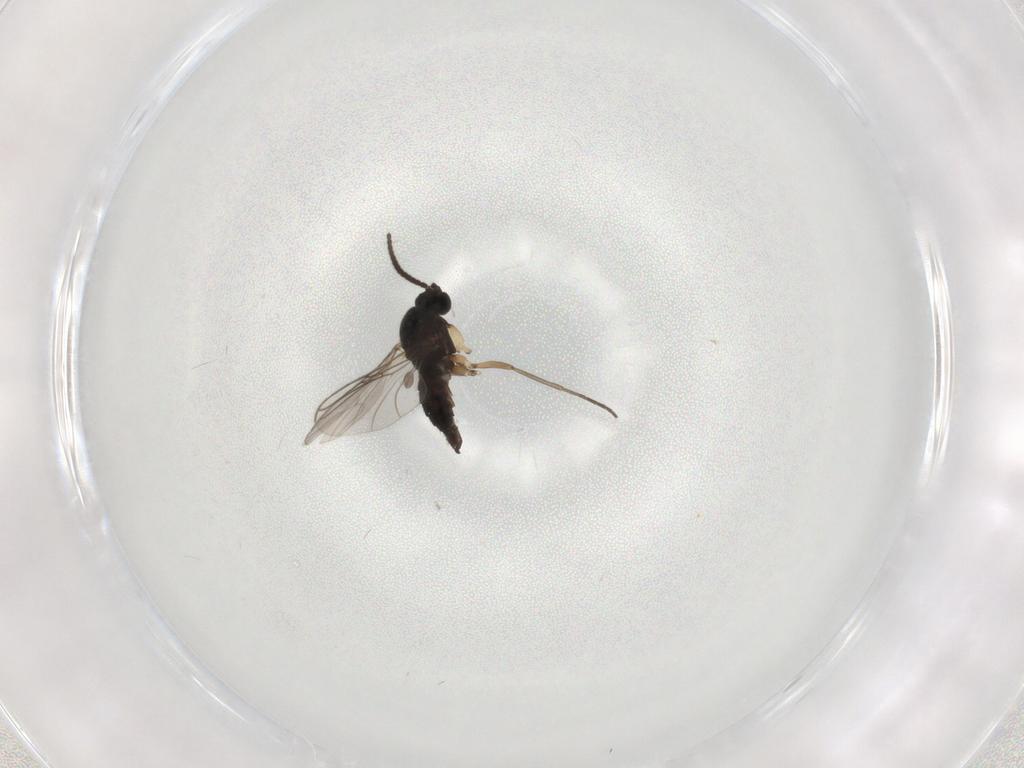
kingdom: Animalia
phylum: Arthropoda
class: Insecta
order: Diptera
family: Sciaridae
